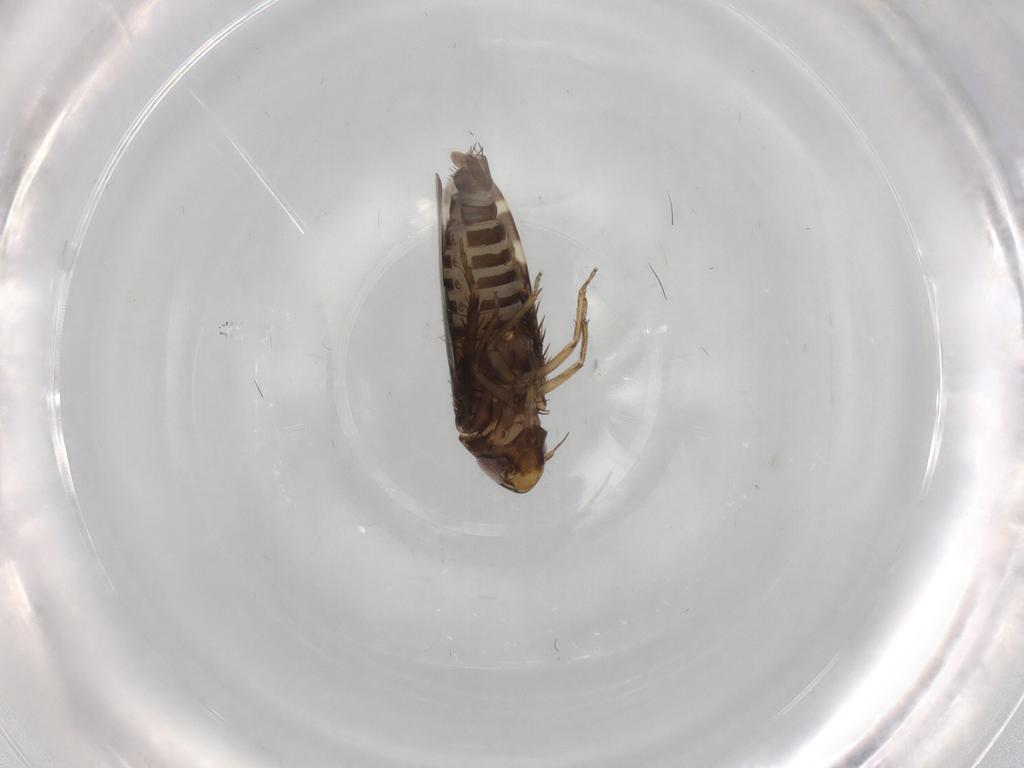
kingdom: Animalia
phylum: Arthropoda
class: Insecta
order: Hemiptera
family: Cicadellidae
